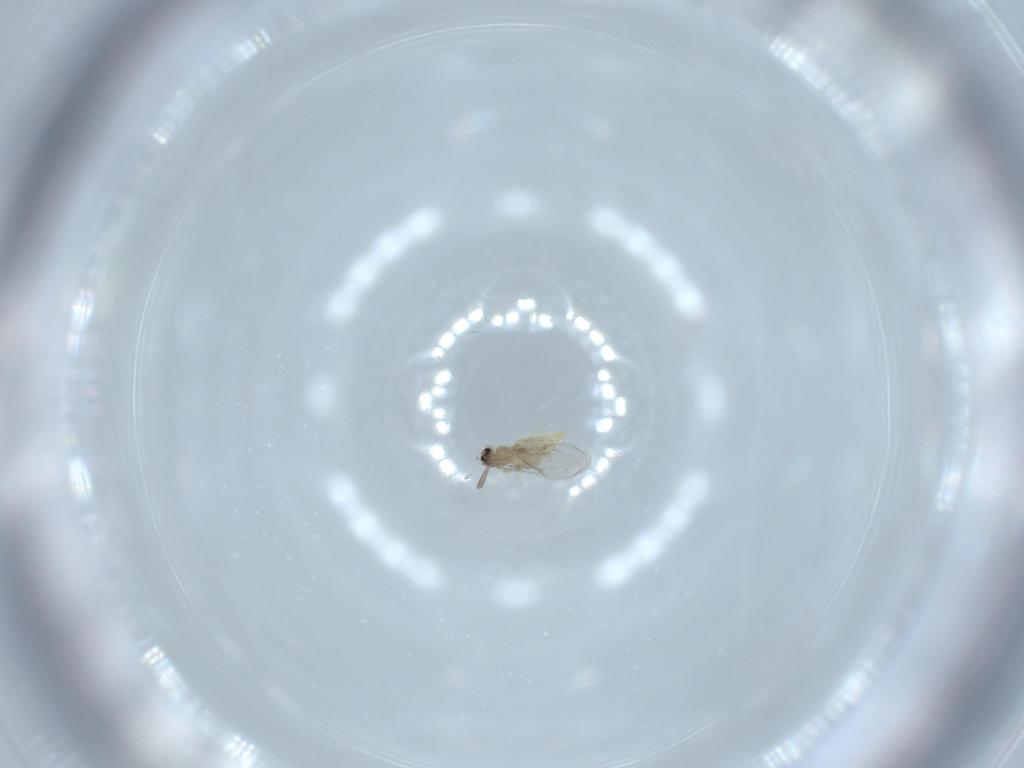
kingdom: Animalia
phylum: Arthropoda
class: Insecta
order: Diptera
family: Cecidomyiidae
